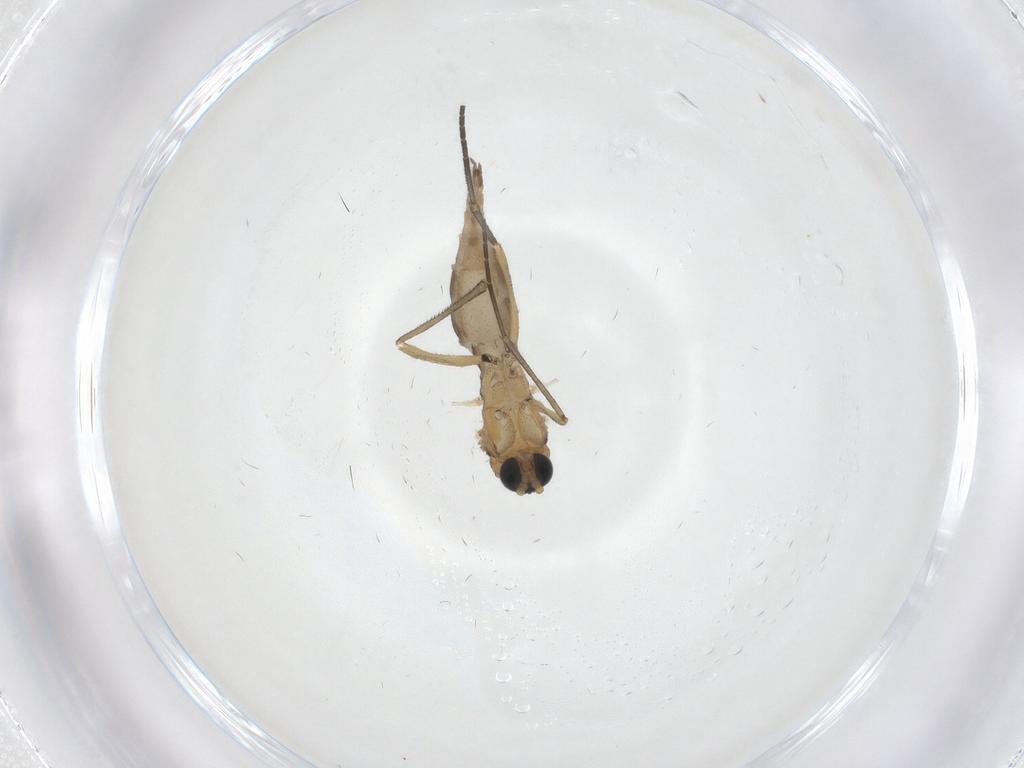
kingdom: Animalia
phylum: Arthropoda
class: Insecta
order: Diptera
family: Sciaridae
